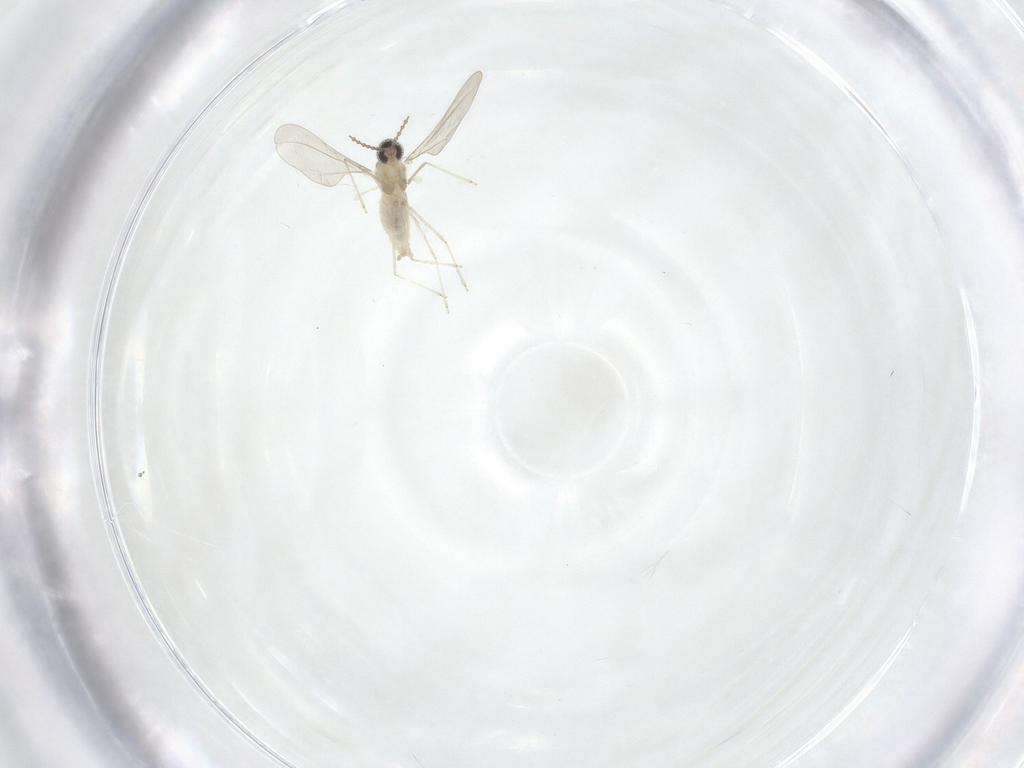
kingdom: Animalia
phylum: Arthropoda
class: Insecta
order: Diptera
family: Cecidomyiidae
